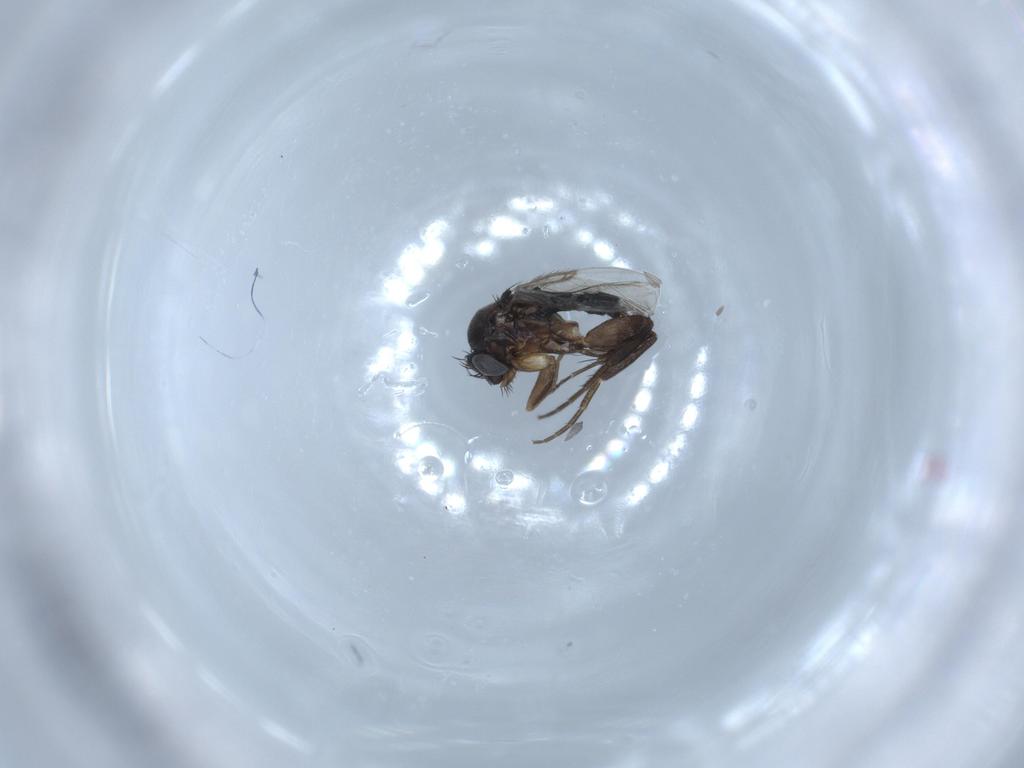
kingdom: Animalia
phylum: Arthropoda
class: Insecta
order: Diptera
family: Phoridae
